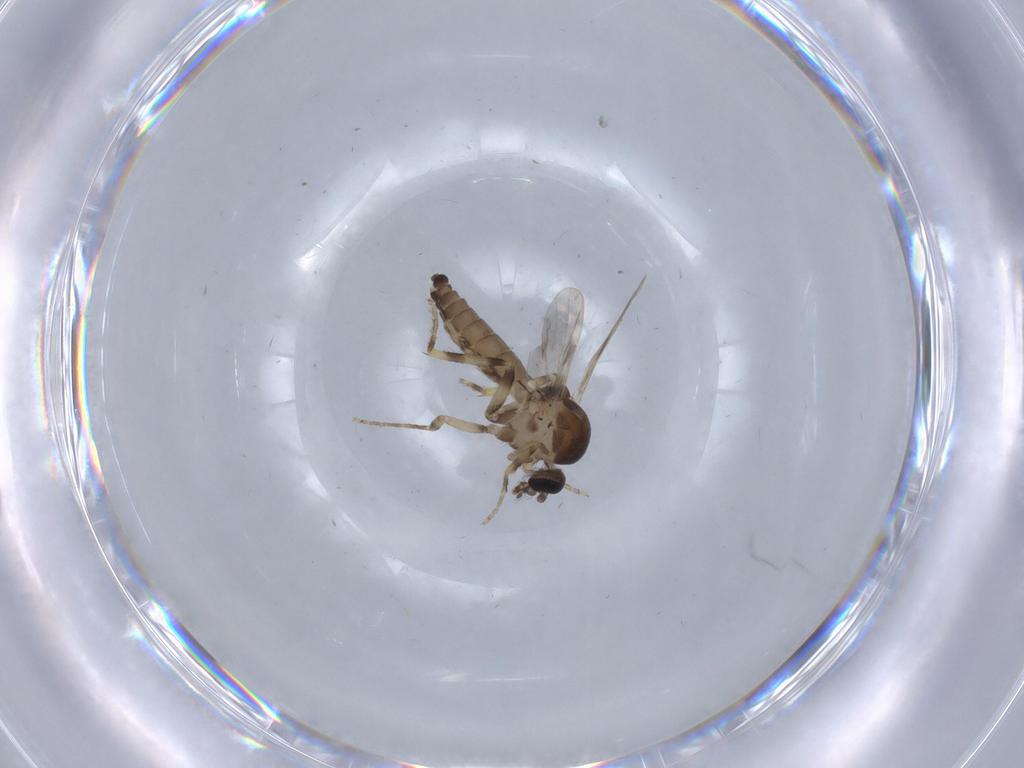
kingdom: Animalia
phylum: Arthropoda
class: Insecta
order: Diptera
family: Ceratopogonidae
